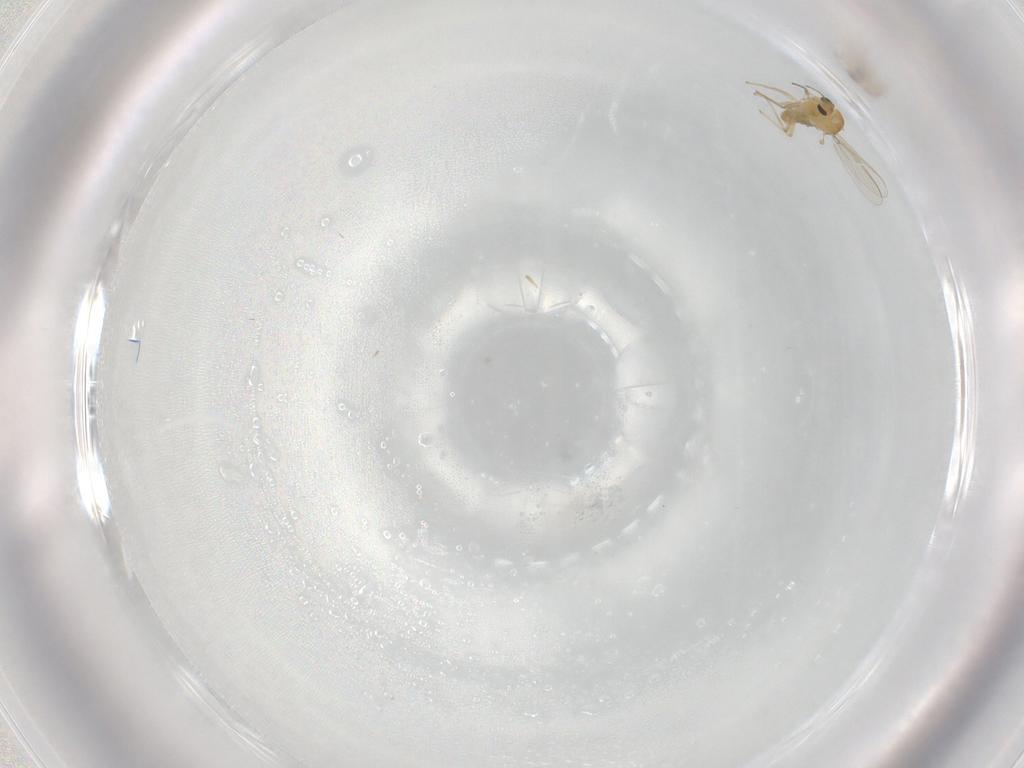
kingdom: Animalia
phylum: Arthropoda
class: Insecta
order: Diptera
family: Chironomidae
